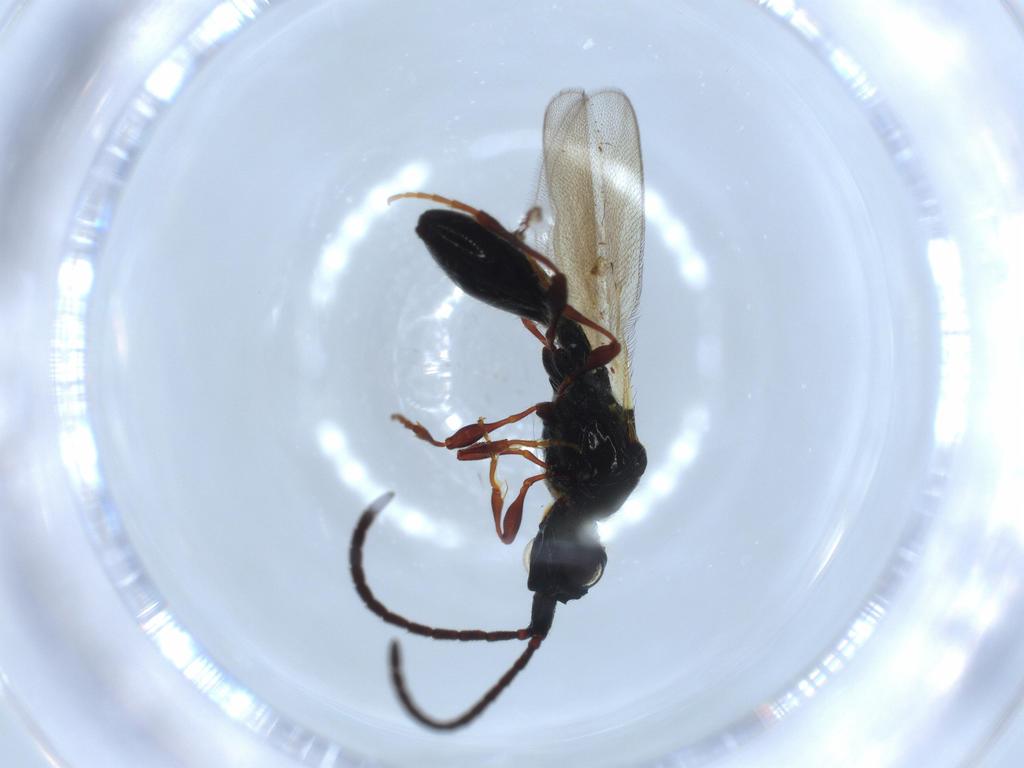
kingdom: Animalia
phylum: Arthropoda
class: Insecta
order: Hymenoptera
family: Diapriidae
